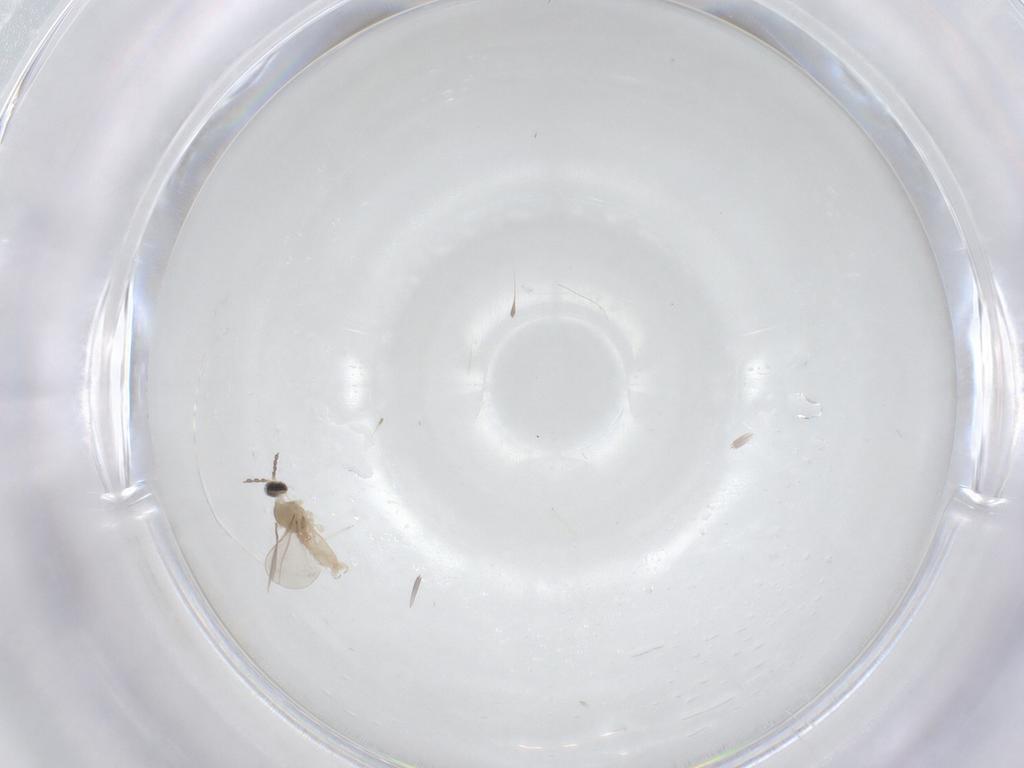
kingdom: Animalia
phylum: Arthropoda
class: Insecta
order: Diptera
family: Cecidomyiidae
